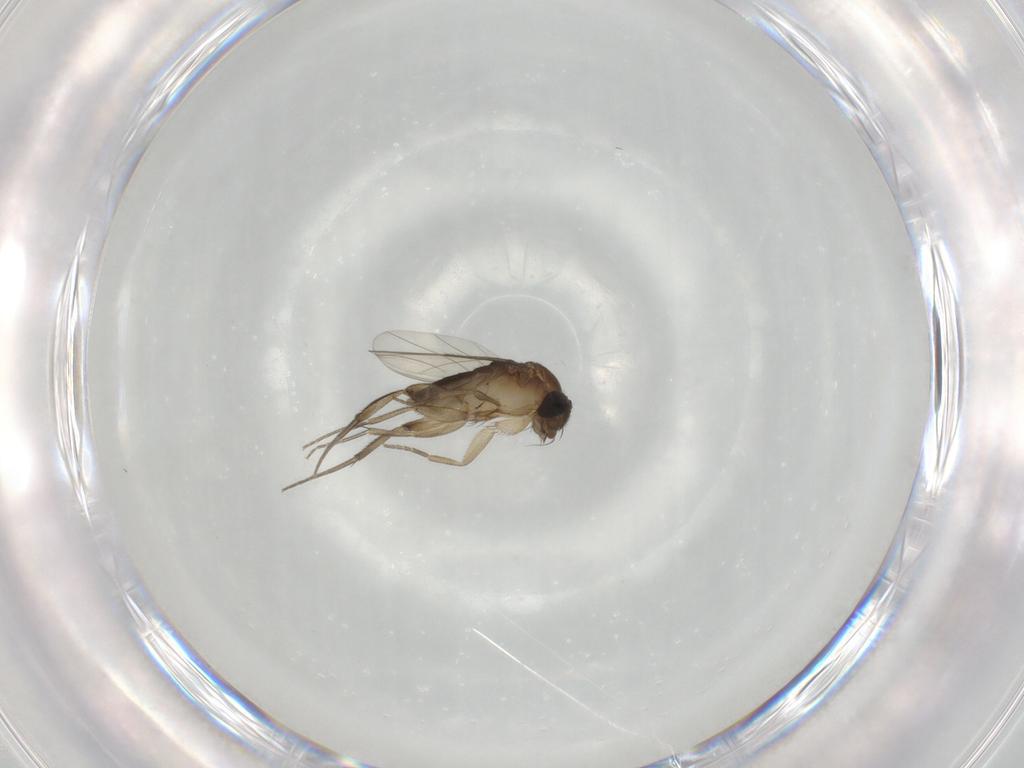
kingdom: Animalia
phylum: Arthropoda
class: Insecta
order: Diptera
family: Phoridae
